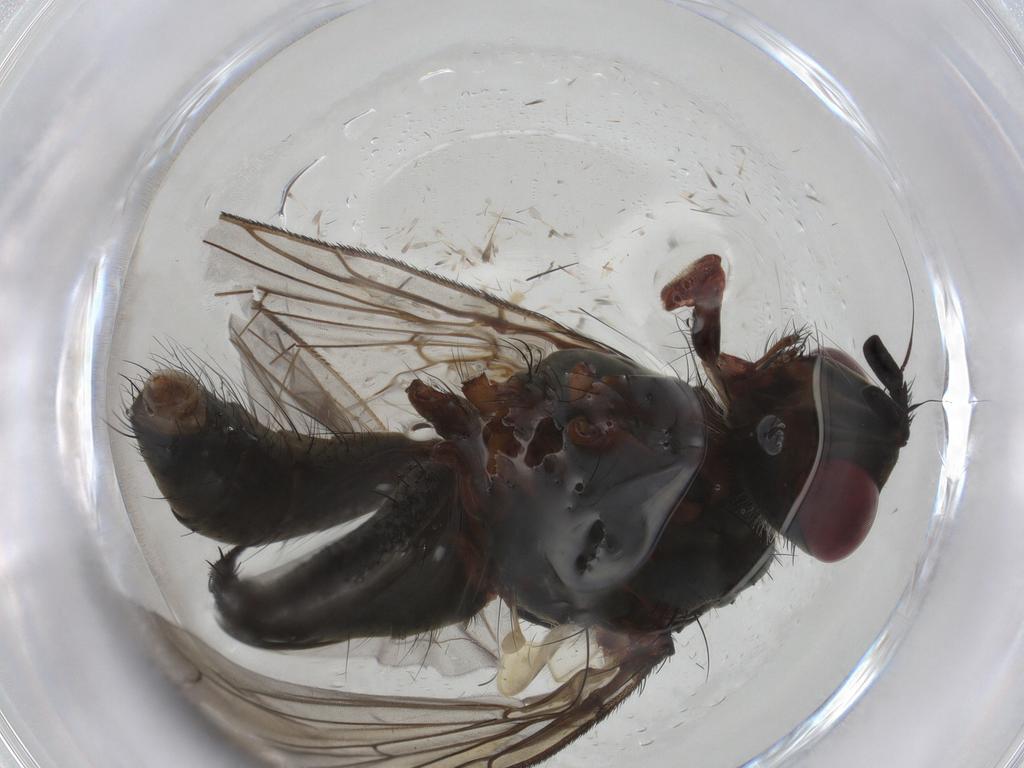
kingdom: Animalia
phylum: Arthropoda
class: Insecta
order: Diptera
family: Tachinidae
